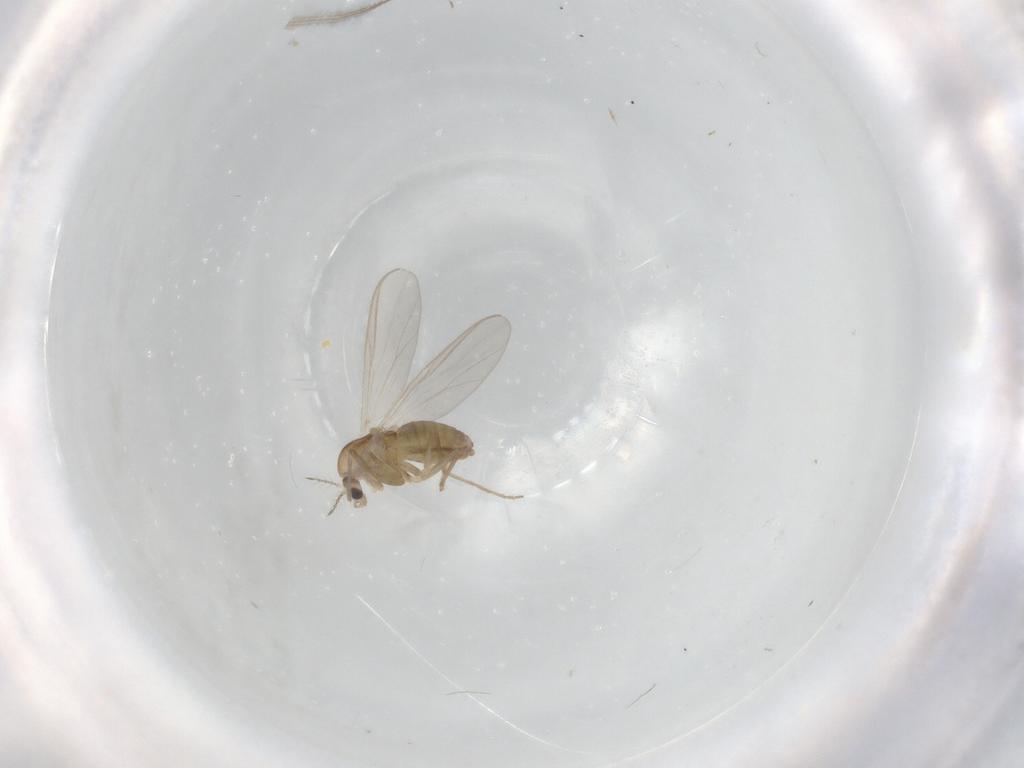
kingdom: Animalia
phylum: Arthropoda
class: Insecta
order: Diptera
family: Chironomidae
